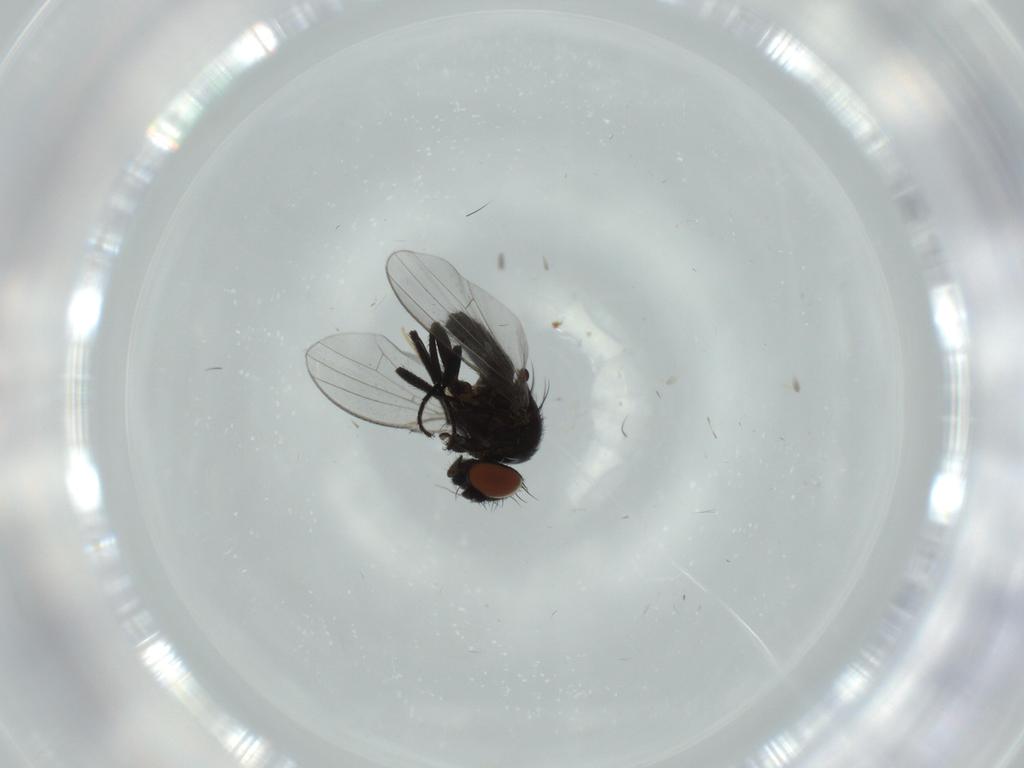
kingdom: Animalia
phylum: Arthropoda
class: Insecta
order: Diptera
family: Milichiidae
